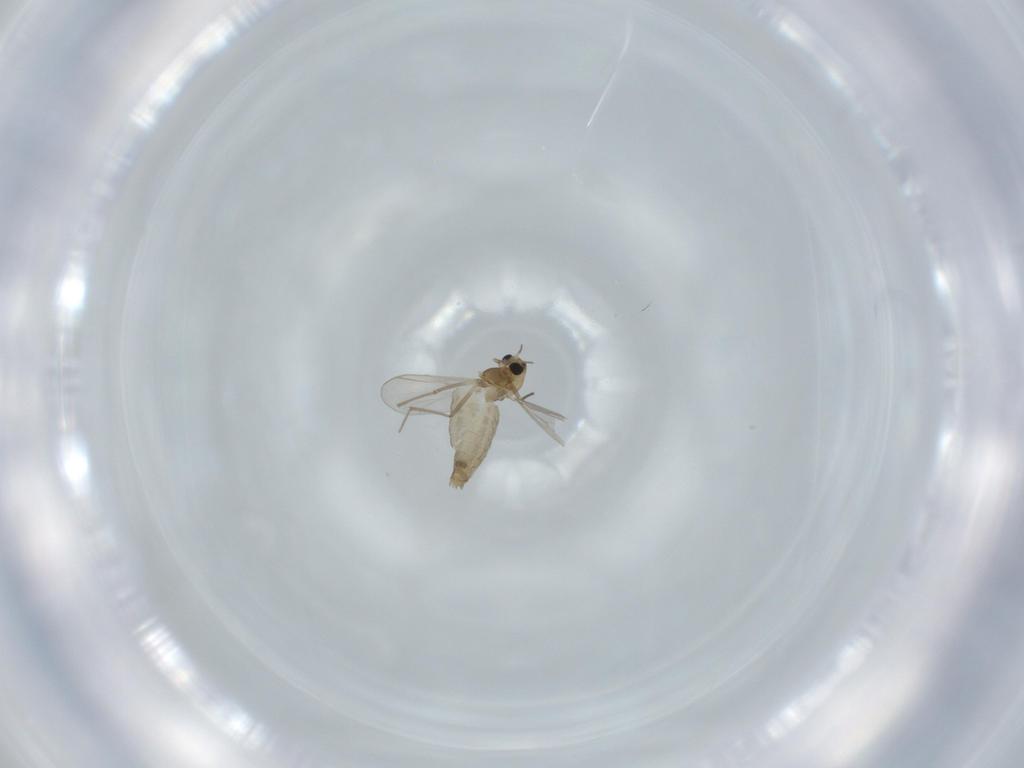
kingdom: Animalia
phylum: Arthropoda
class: Insecta
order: Diptera
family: Chironomidae
